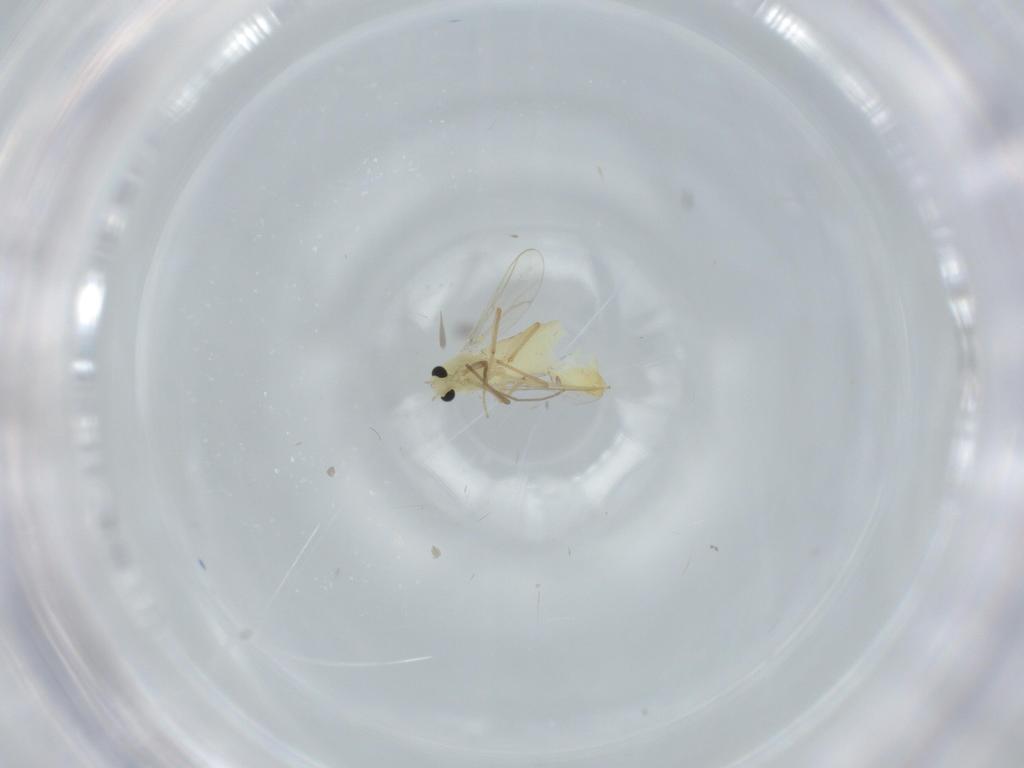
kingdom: Animalia
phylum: Arthropoda
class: Insecta
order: Diptera
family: Chironomidae
